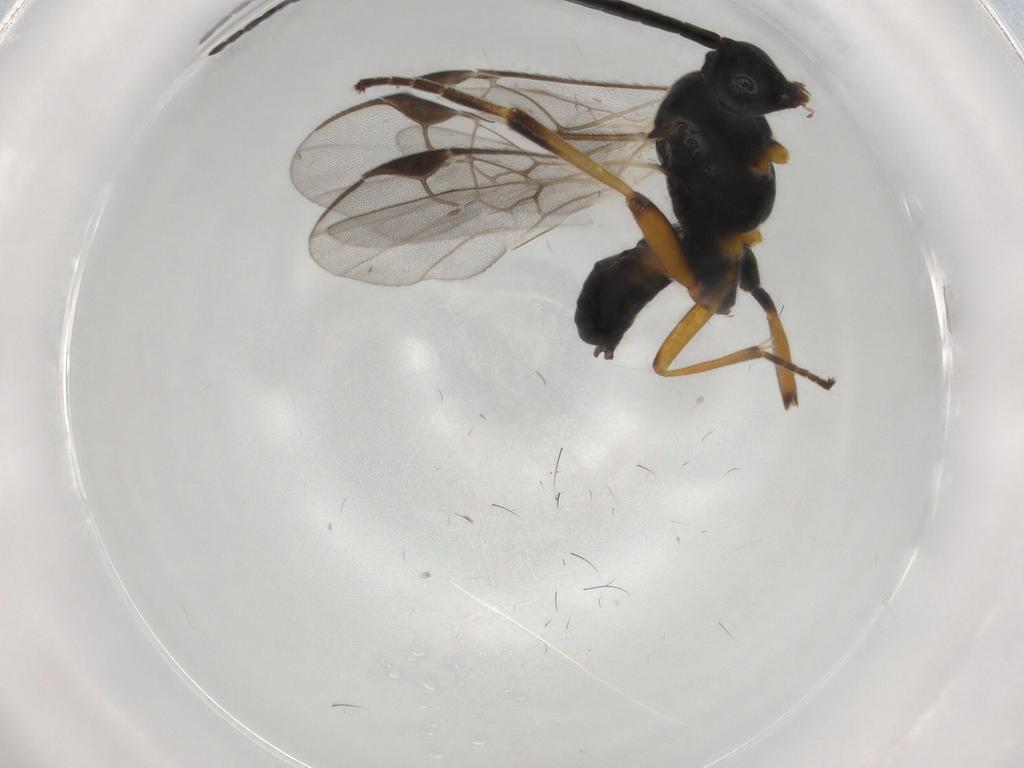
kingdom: Animalia
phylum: Arthropoda
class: Insecta
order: Hymenoptera
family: Braconidae
